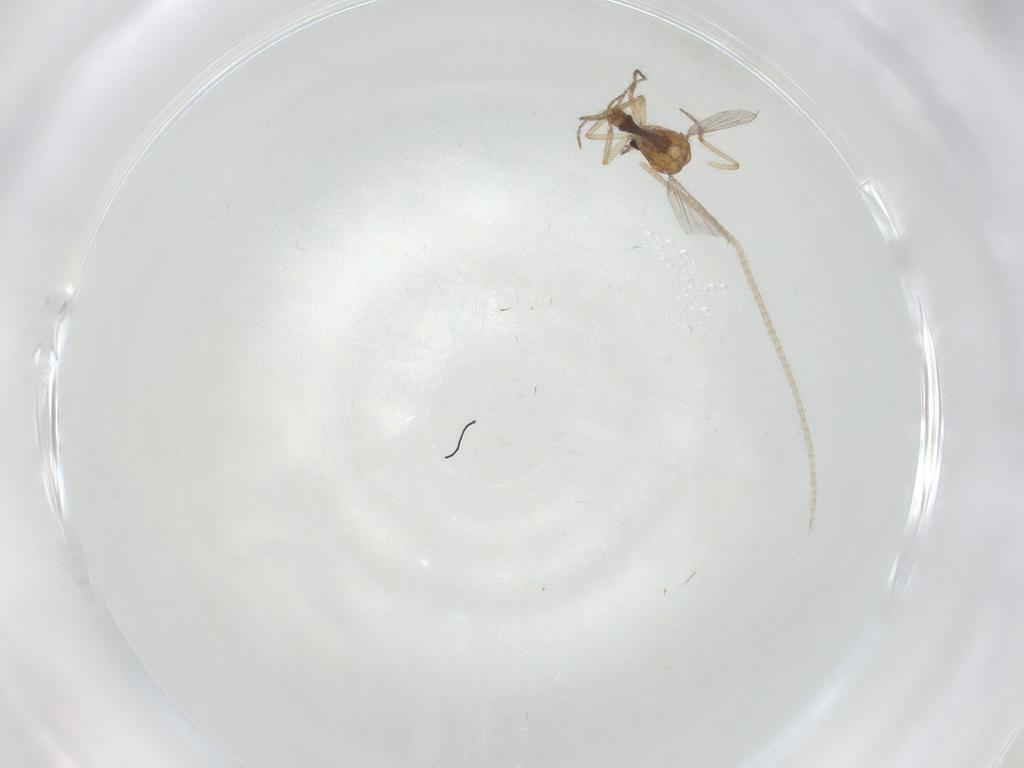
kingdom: Animalia
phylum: Arthropoda
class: Insecta
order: Diptera
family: Ceratopogonidae
